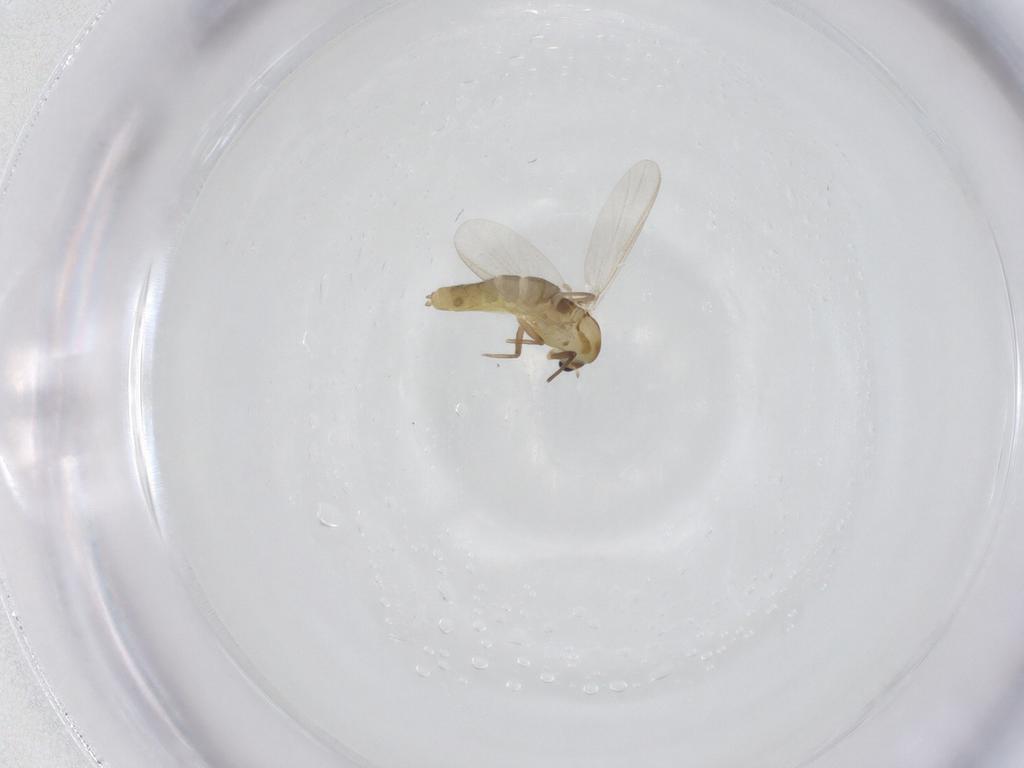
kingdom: Animalia
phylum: Arthropoda
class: Insecta
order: Diptera
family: Chironomidae
